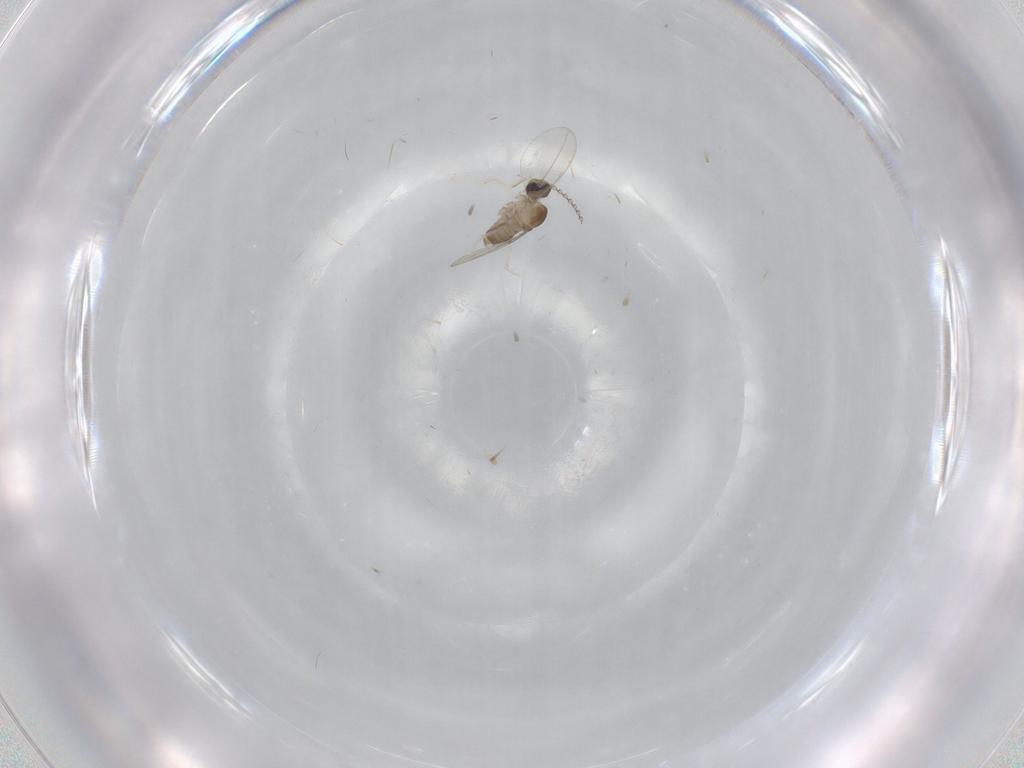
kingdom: Animalia
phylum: Arthropoda
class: Insecta
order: Diptera
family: Cecidomyiidae
